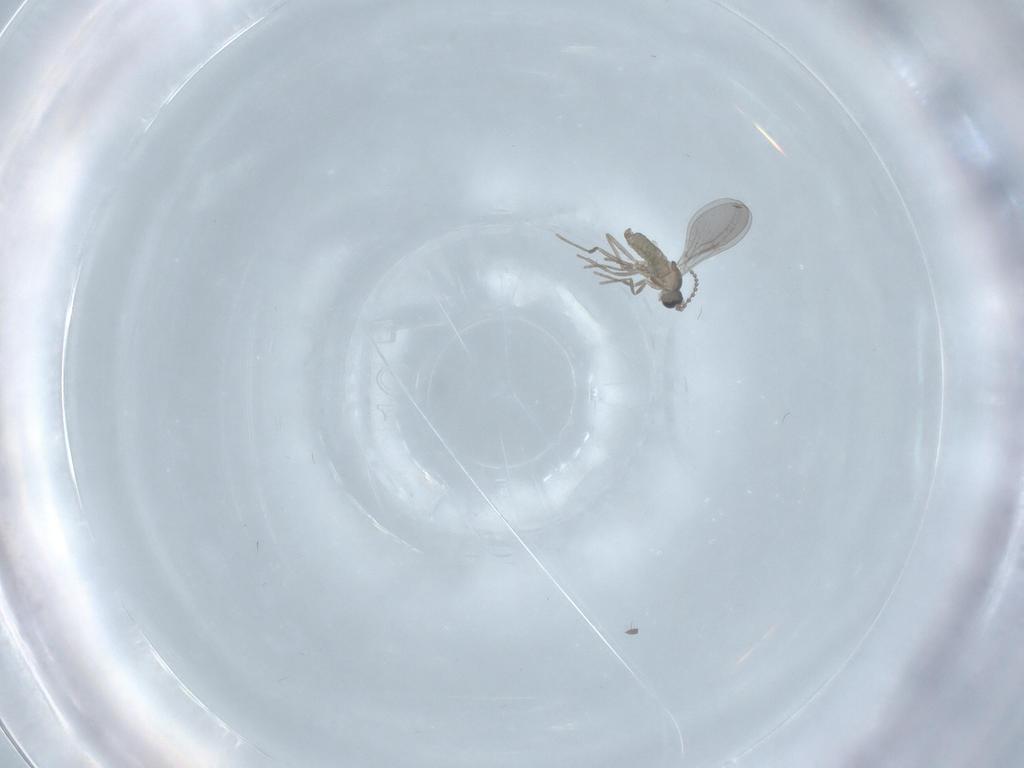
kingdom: Animalia
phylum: Arthropoda
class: Insecta
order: Diptera
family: Cecidomyiidae
